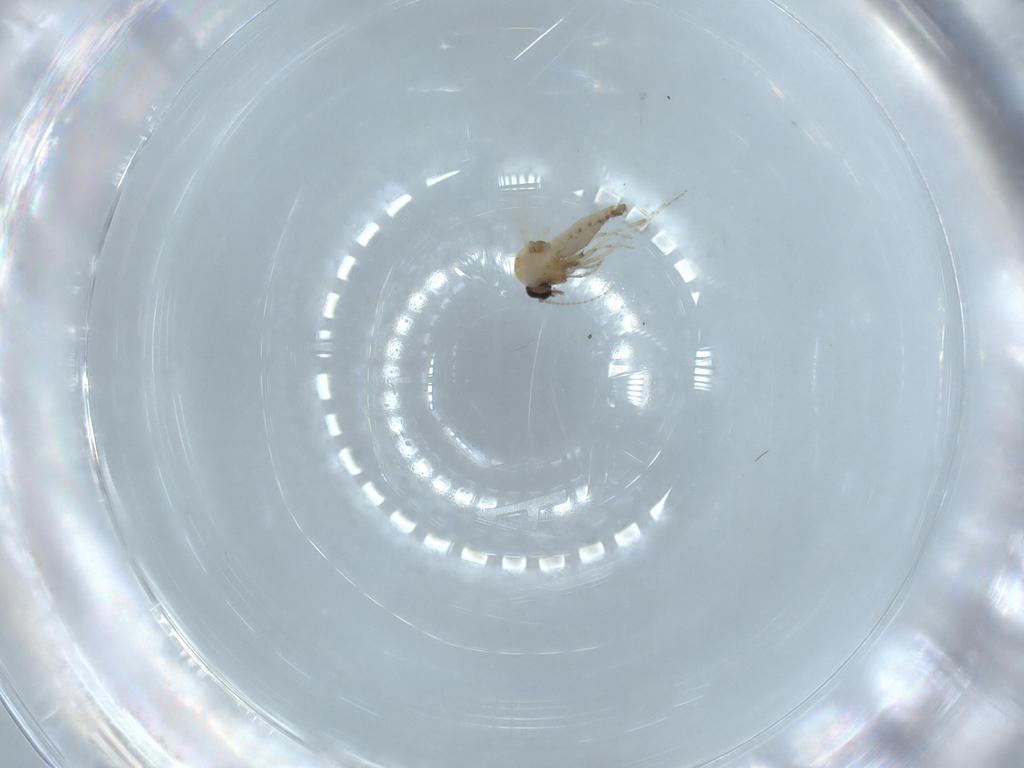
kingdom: Animalia
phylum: Arthropoda
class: Insecta
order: Diptera
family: Ceratopogonidae
